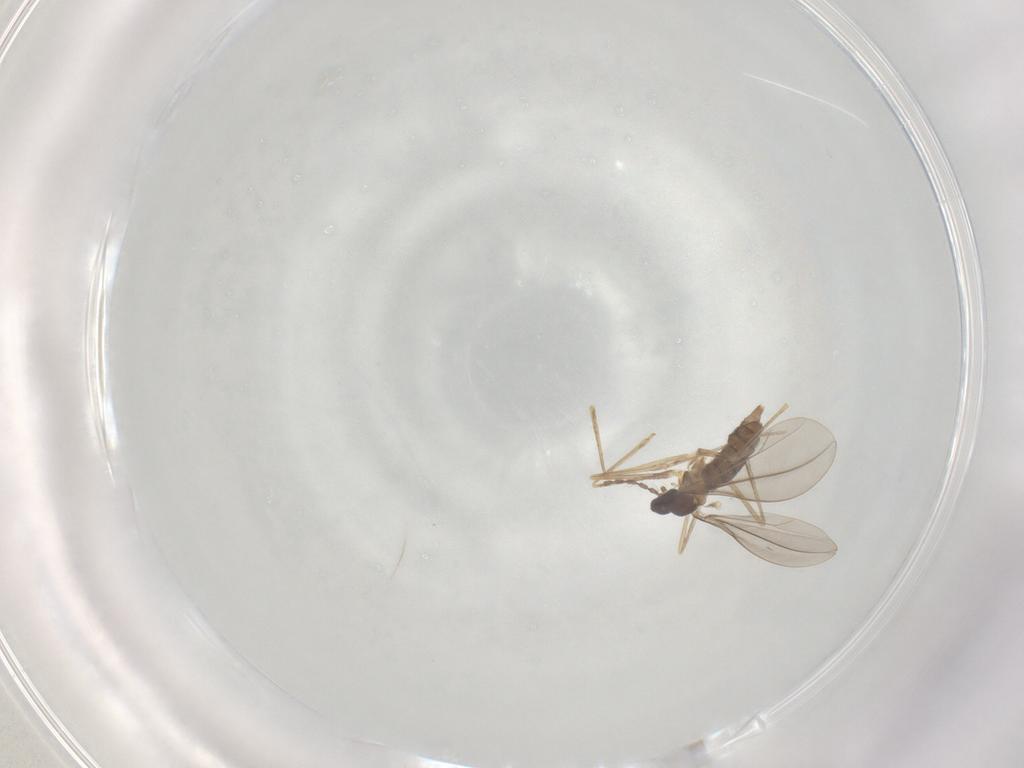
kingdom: Animalia
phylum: Arthropoda
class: Insecta
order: Diptera
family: Cecidomyiidae
